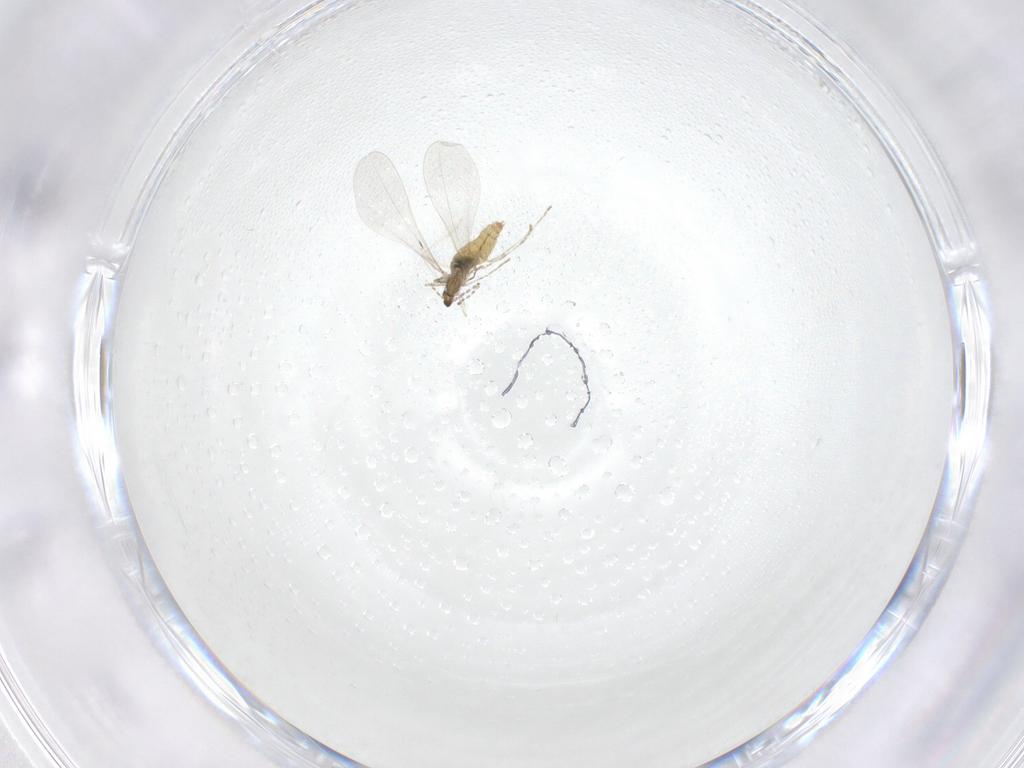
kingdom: Animalia
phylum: Arthropoda
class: Insecta
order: Diptera
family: Cecidomyiidae
